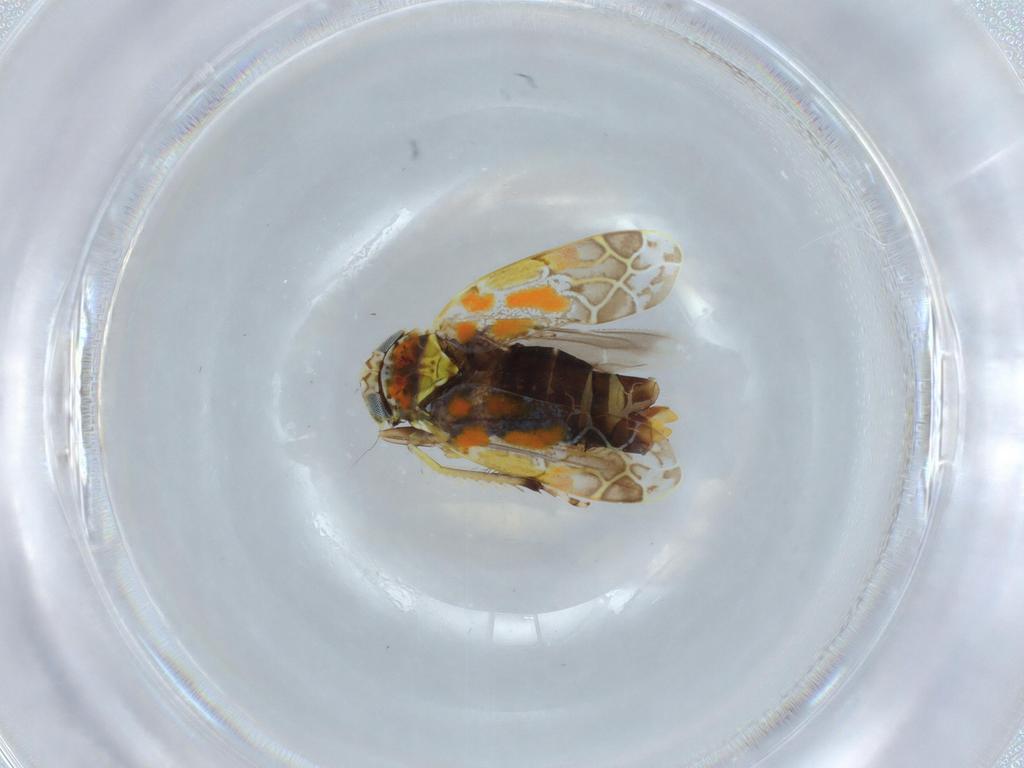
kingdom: Animalia
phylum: Arthropoda
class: Insecta
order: Hemiptera
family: Cicadellidae
